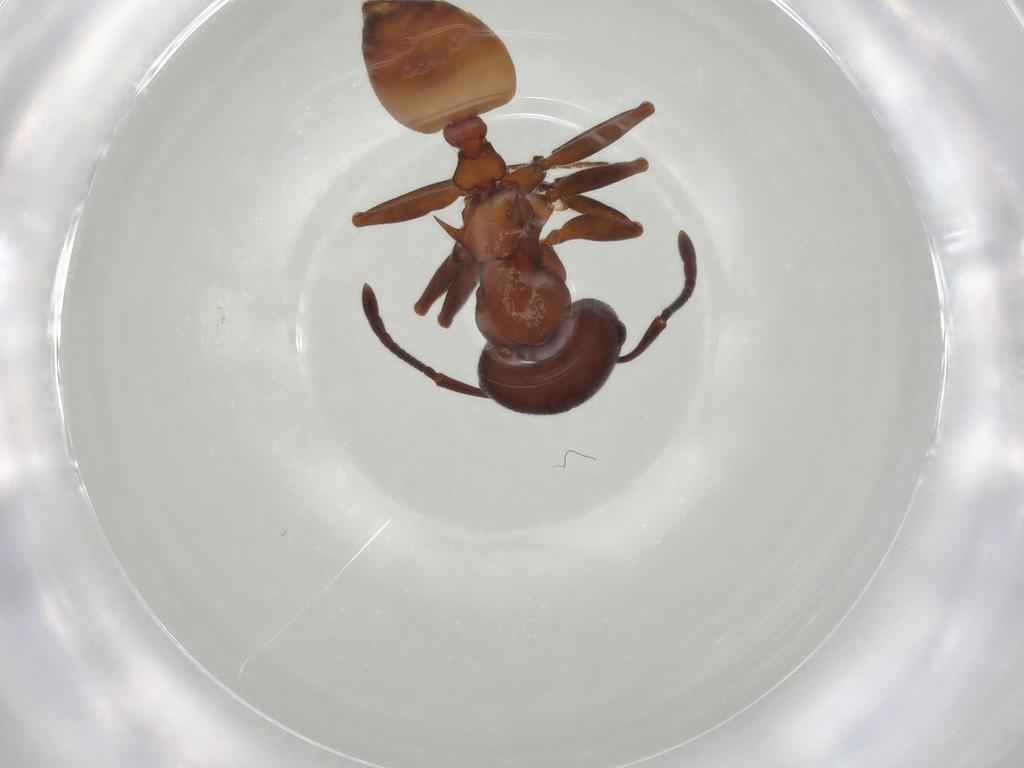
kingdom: Animalia
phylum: Arthropoda
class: Insecta
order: Hymenoptera
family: Formicidae
